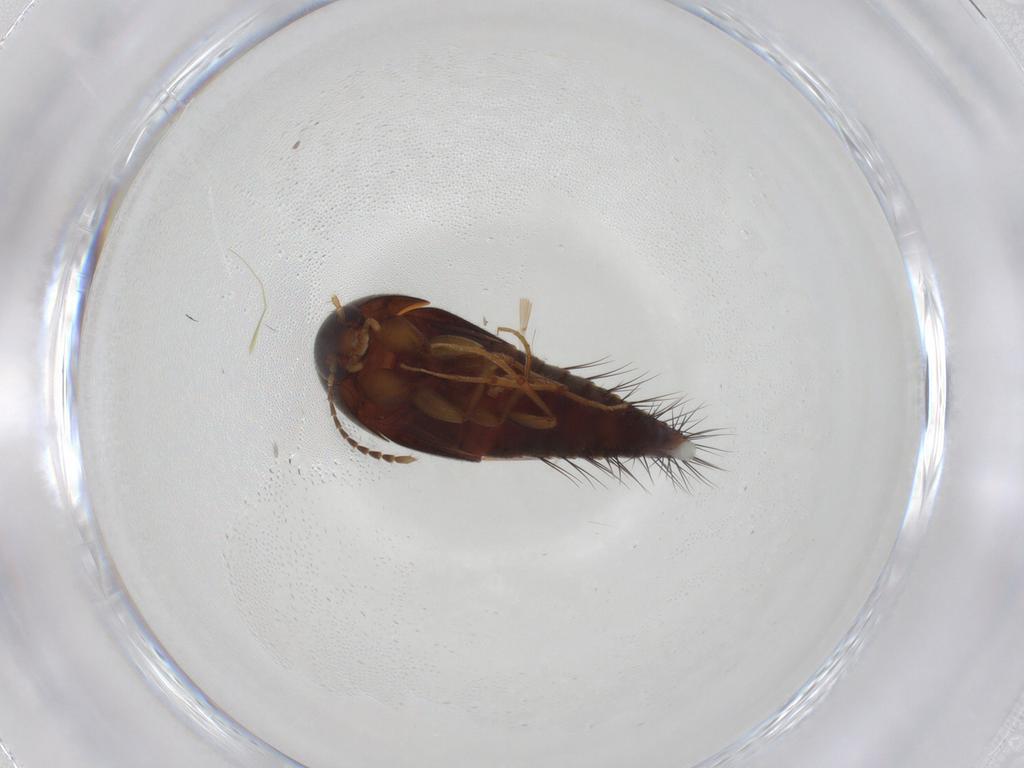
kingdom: Animalia
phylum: Arthropoda
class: Insecta
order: Coleoptera
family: Staphylinidae
